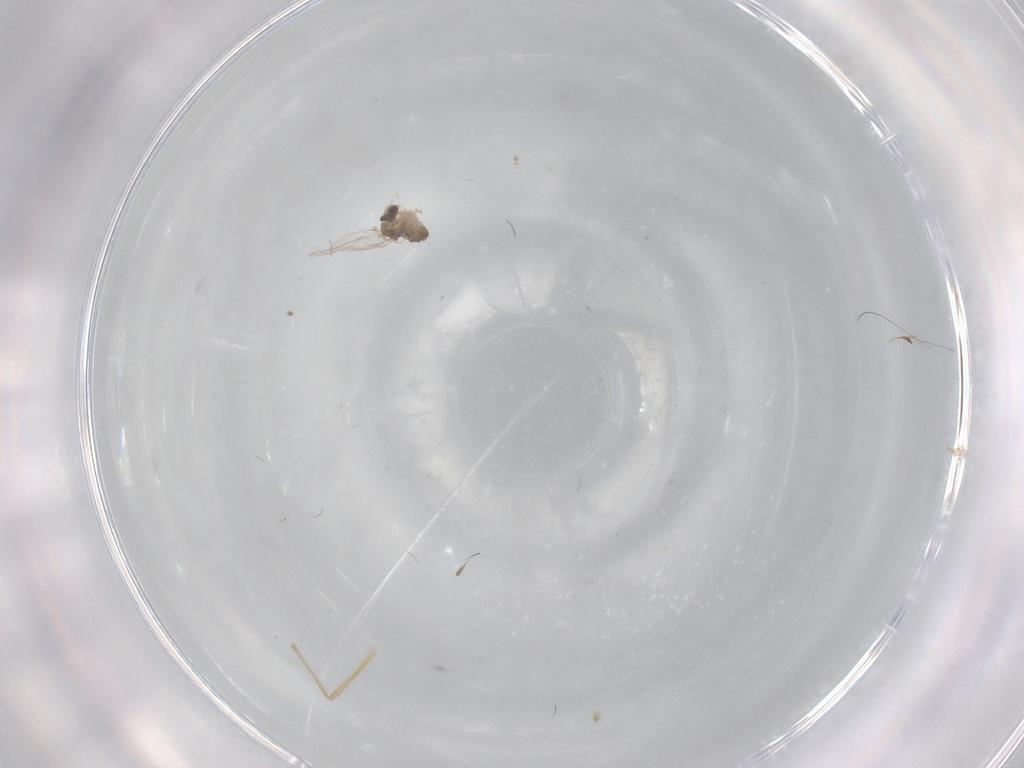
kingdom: Animalia
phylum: Arthropoda
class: Insecta
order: Diptera
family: Cecidomyiidae
